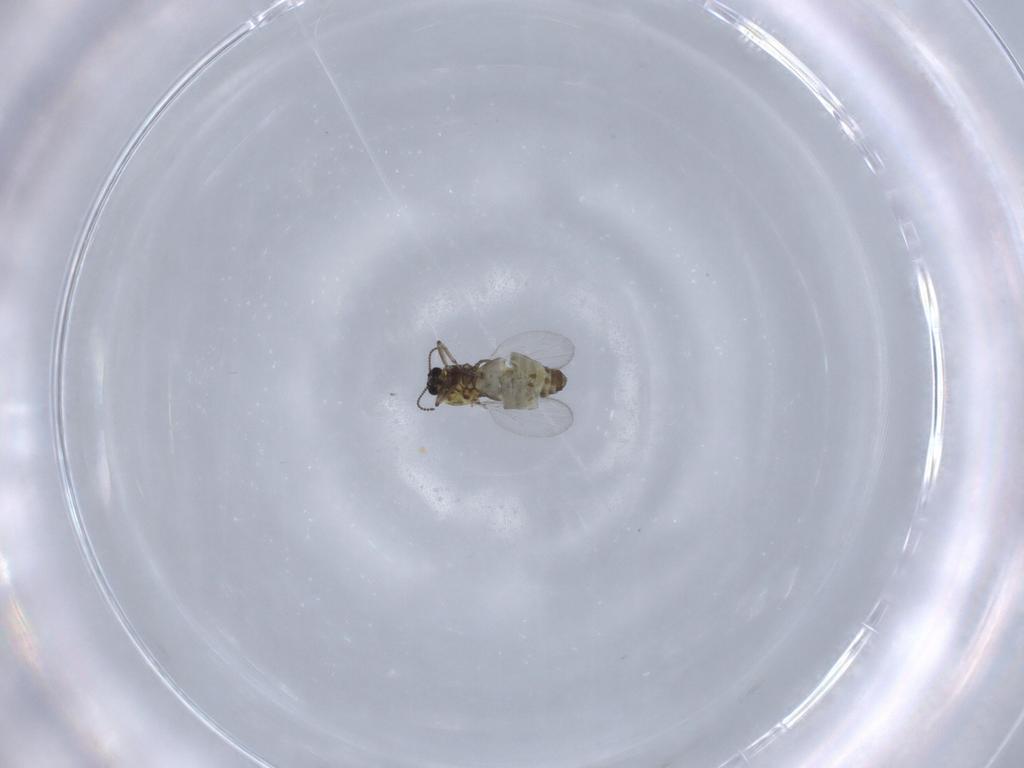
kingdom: Animalia
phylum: Arthropoda
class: Insecta
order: Diptera
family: Ceratopogonidae
